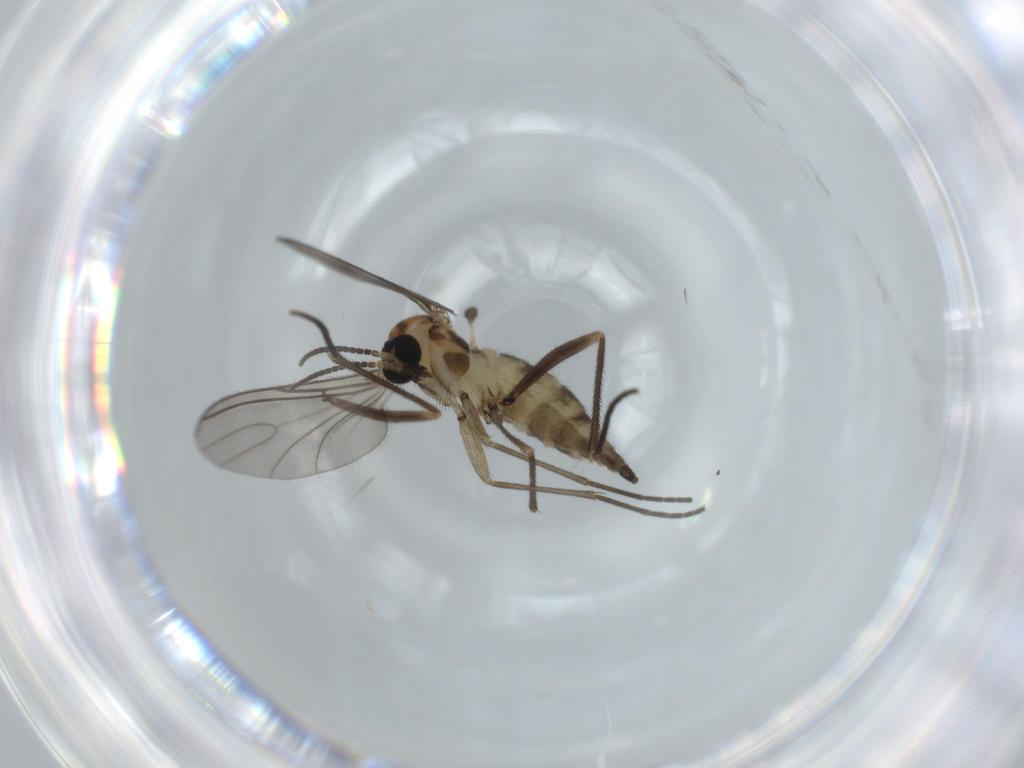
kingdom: Animalia
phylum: Arthropoda
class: Insecta
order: Diptera
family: Sciaridae
